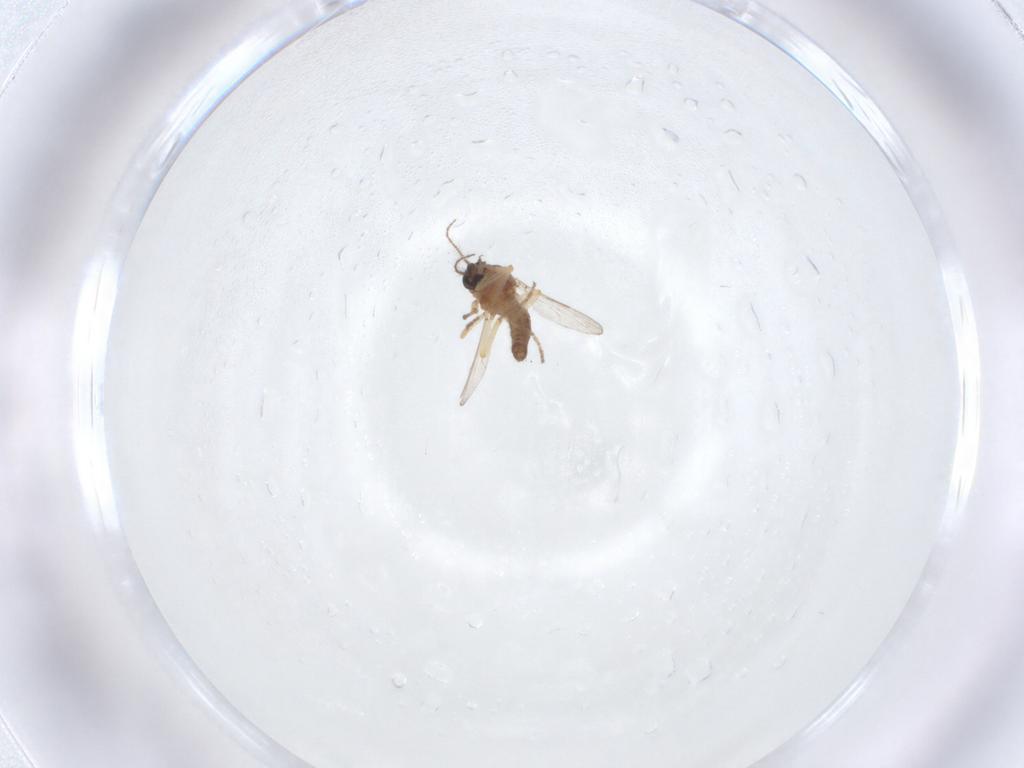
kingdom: Animalia
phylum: Arthropoda
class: Insecta
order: Diptera
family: Ceratopogonidae
